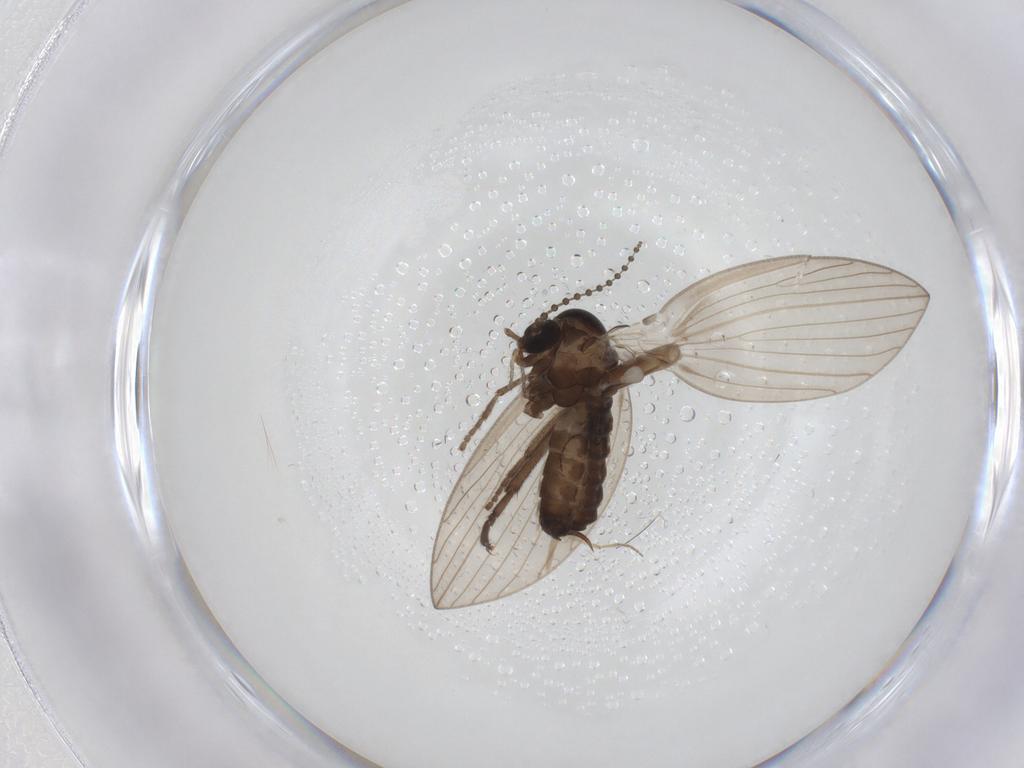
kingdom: Animalia
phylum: Arthropoda
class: Insecta
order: Diptera
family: Psychodidae
